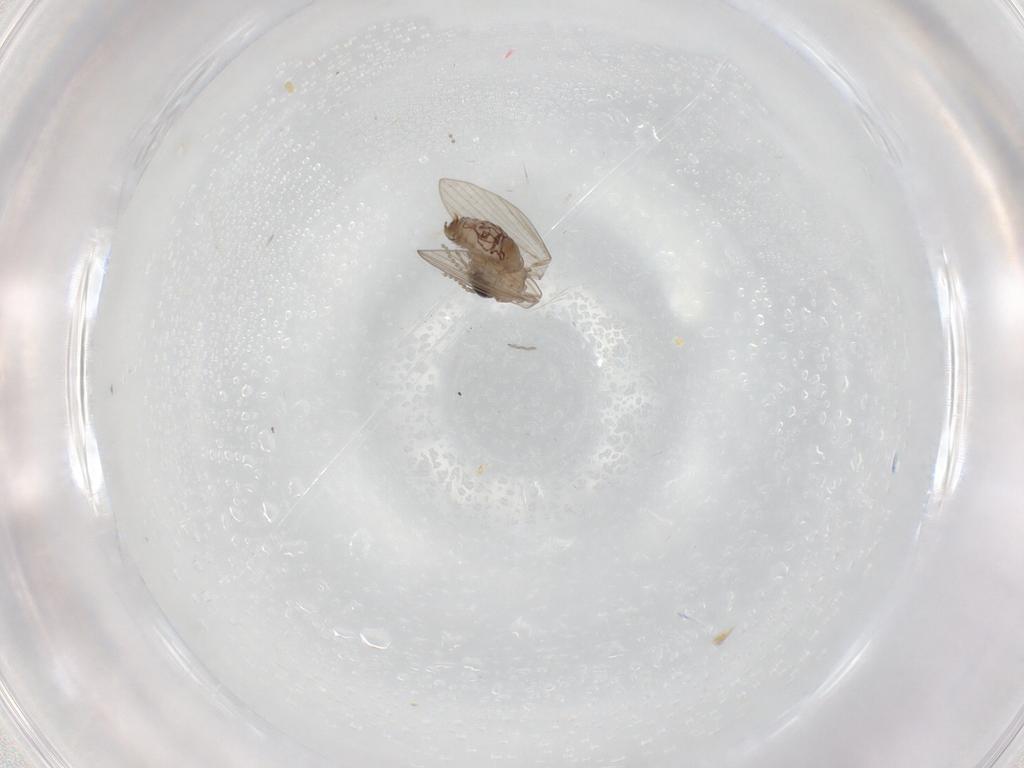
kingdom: Animalia
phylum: Arthropoda
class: Insecta
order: Diptera
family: Psychodidae
